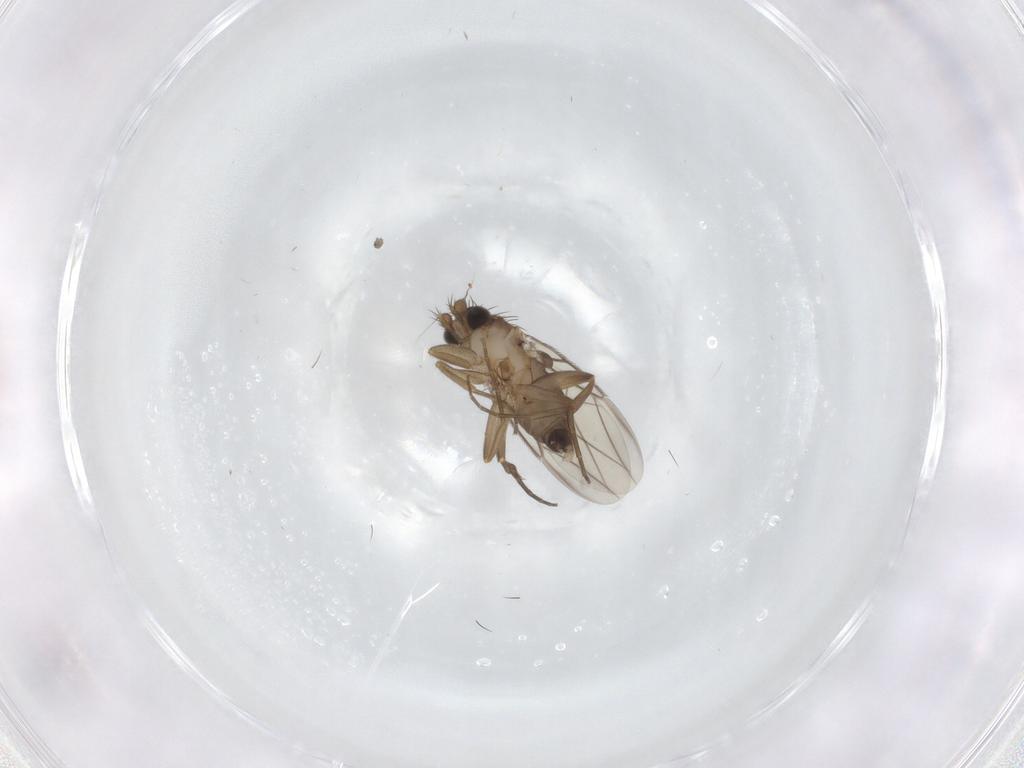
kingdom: Animalia
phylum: Arthropoda
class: Insecta
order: Diptera
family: Phoridae
